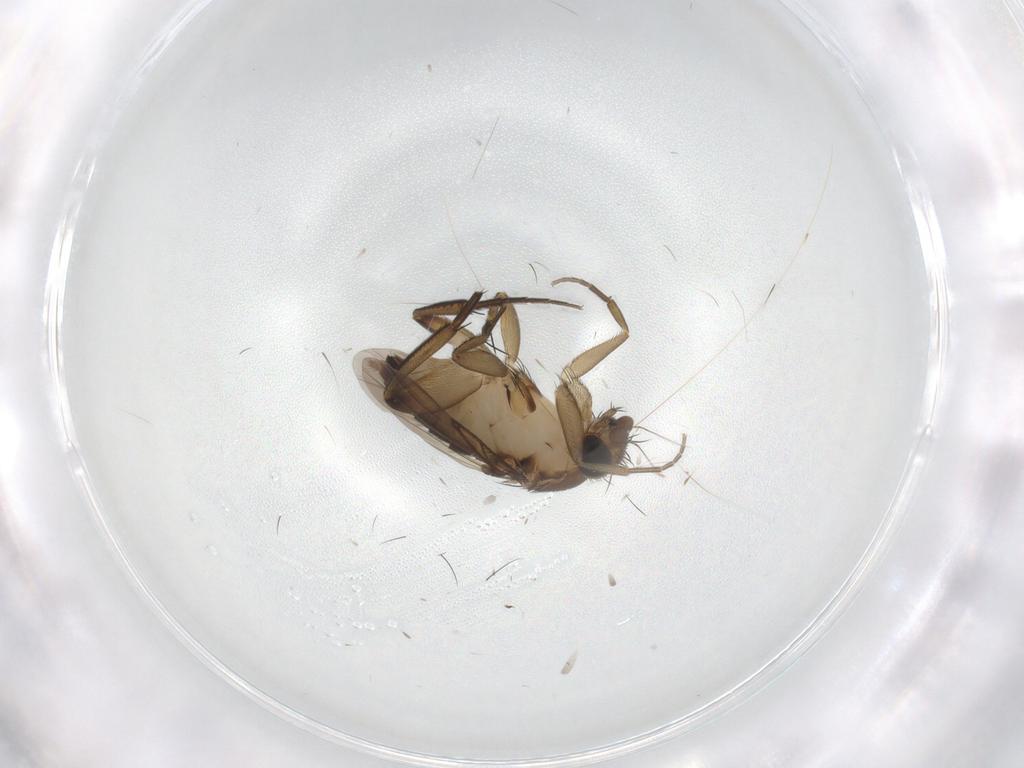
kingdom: Animalia
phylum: Arthropoda
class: Insecta
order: Diptera
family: Phoridae
